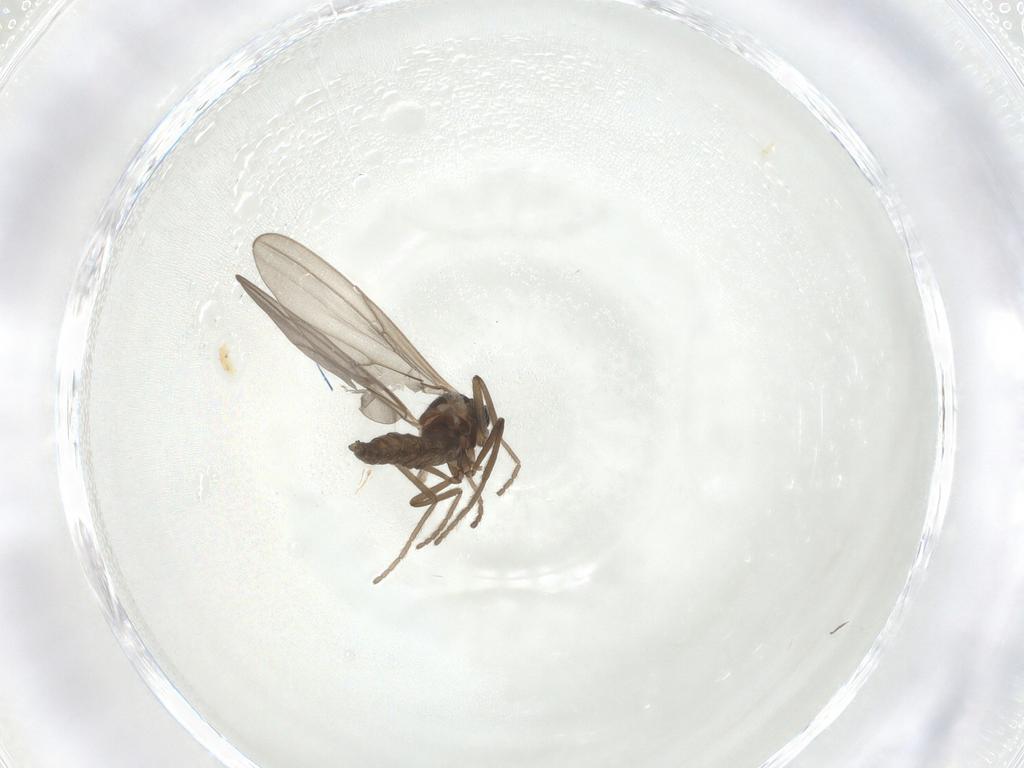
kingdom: Animalia
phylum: Arthropoda
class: Insecta
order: Diptera
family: Cecidomyiidae
